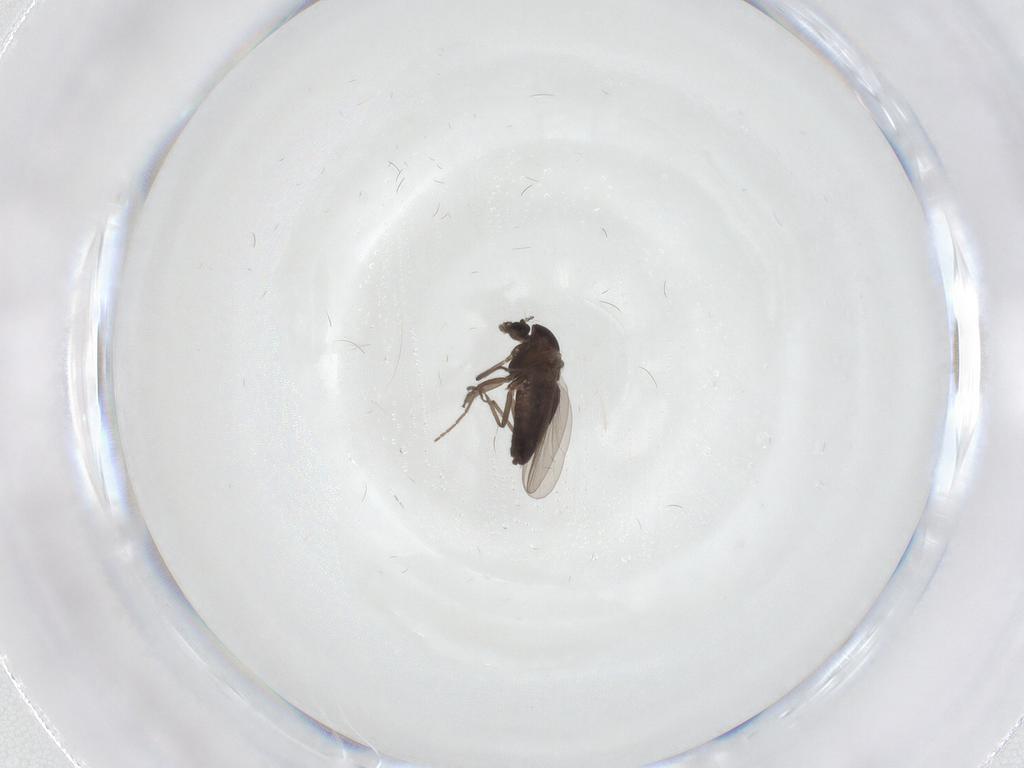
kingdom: Animalia
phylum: Arthropoda
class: Insecta
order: Diptera
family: Chironomidae
